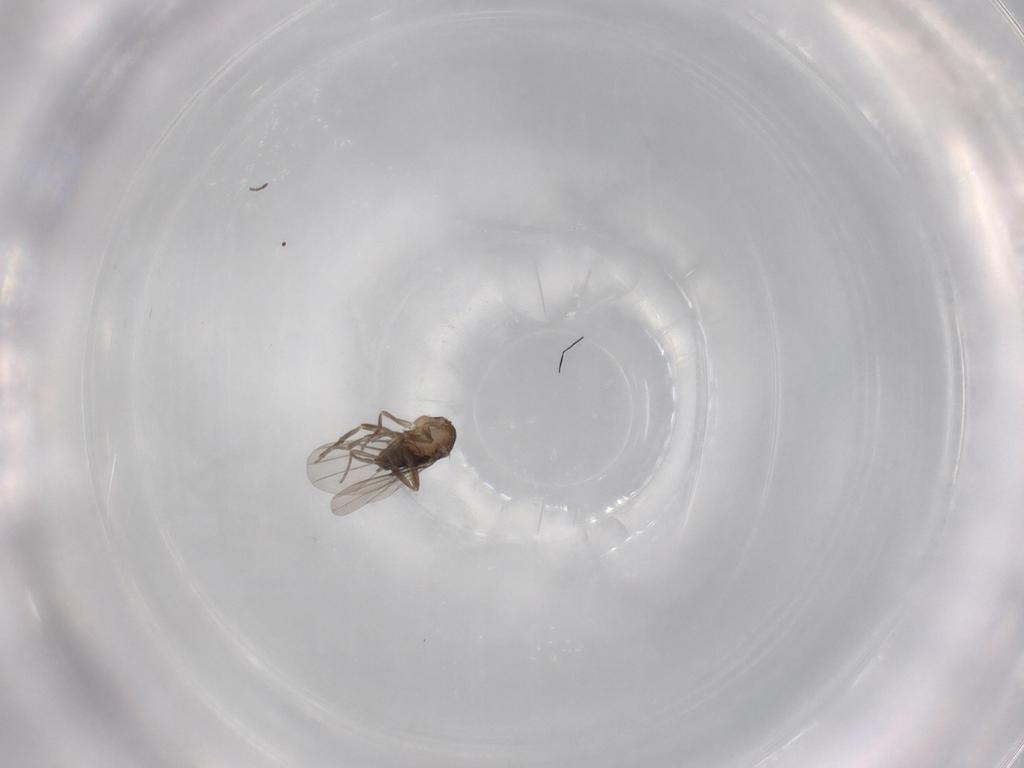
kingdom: Animalia
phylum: Arthropoda
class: Insecta
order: Diptera
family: Phoridae
